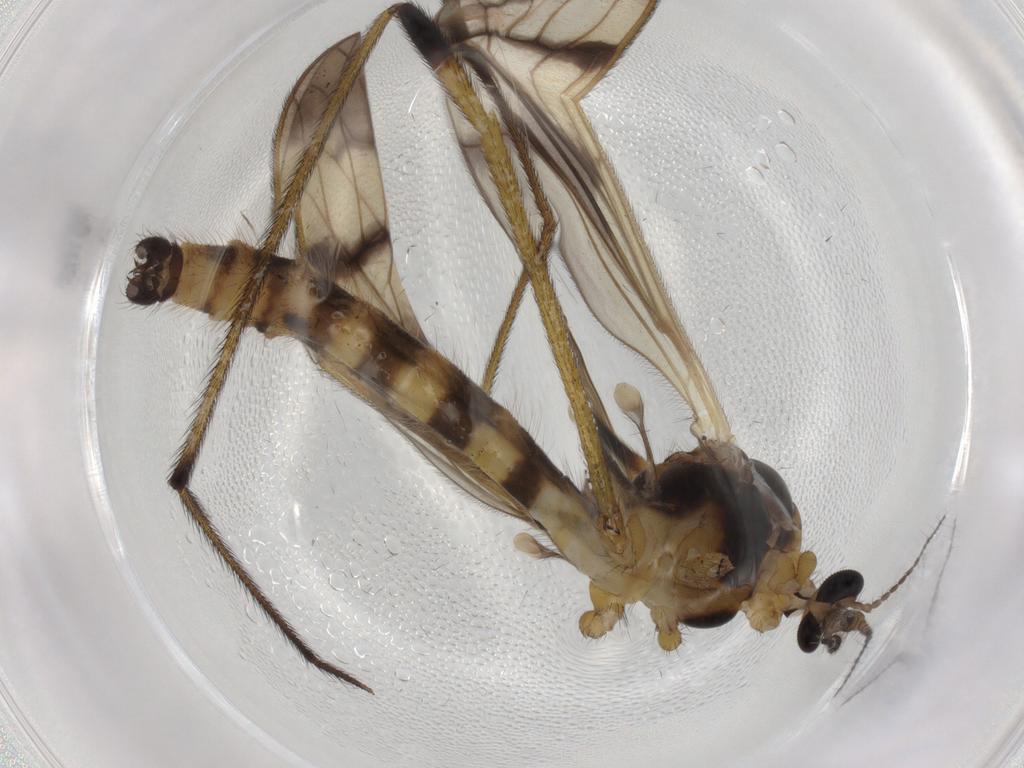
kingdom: Animalia
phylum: Arthropoda
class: Insecta
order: Diptera
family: Limoniidae
